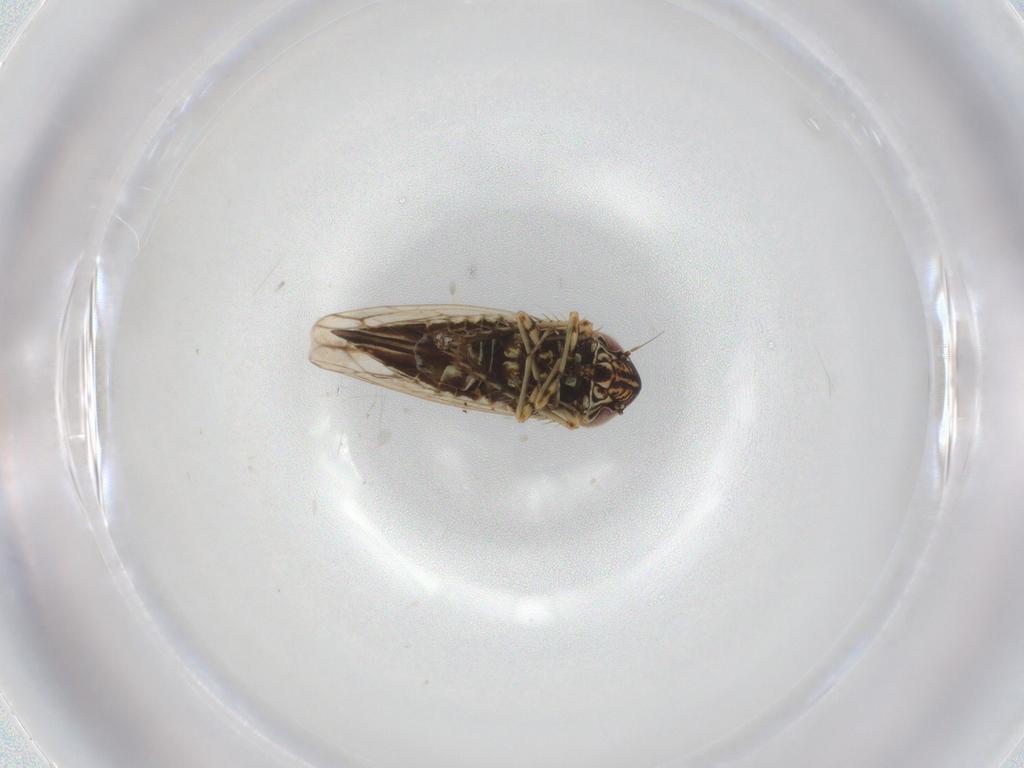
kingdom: Animalia
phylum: Arthropoda
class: Insecta
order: Hemiptera
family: Cicadellidae
